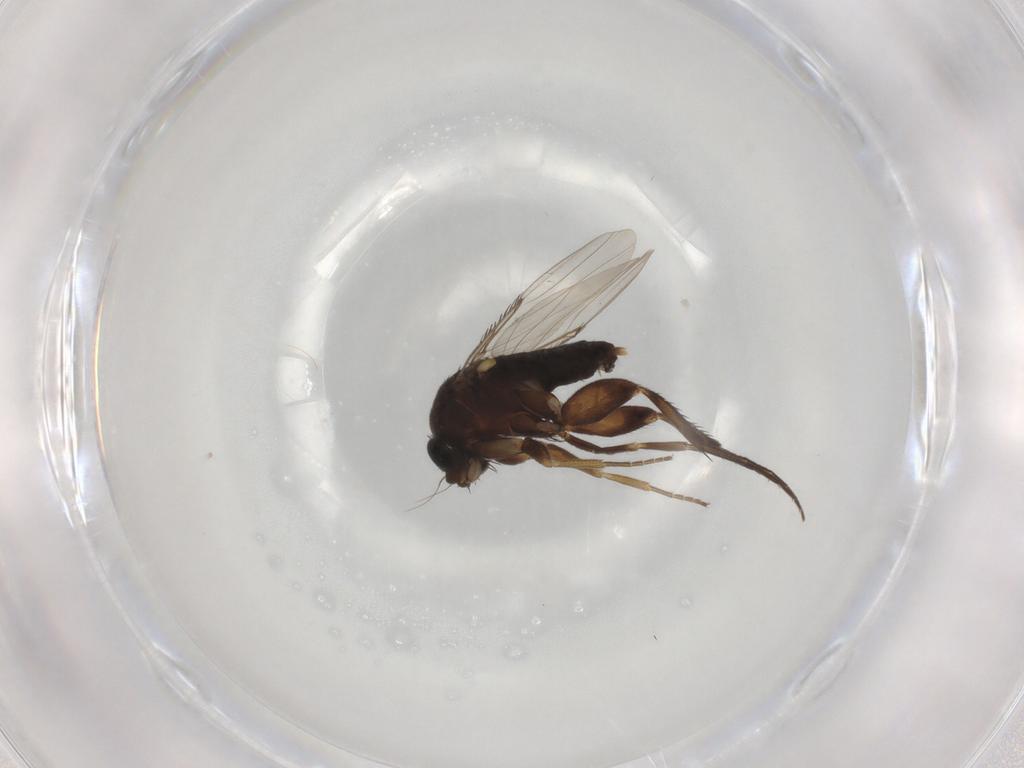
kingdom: Animalia
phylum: Arthropoda
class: Insecta
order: Diptera
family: Phoridae
